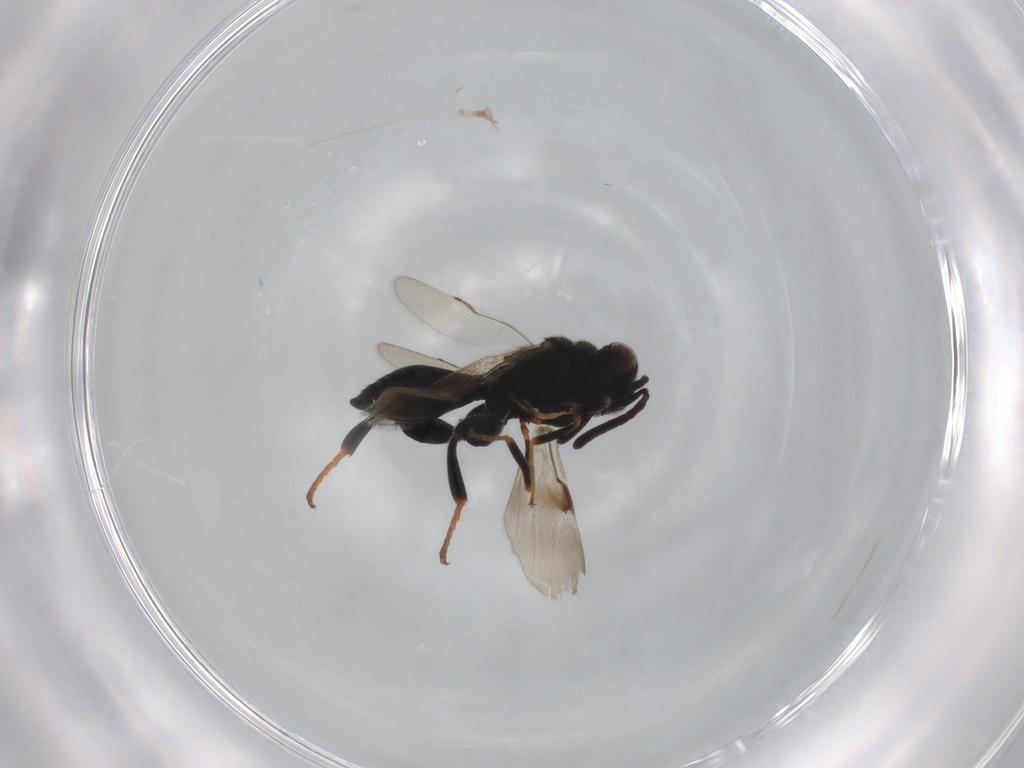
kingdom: Animalia
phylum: Arthropoda
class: Insecta
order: Hymenoptera
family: Chalcididae
